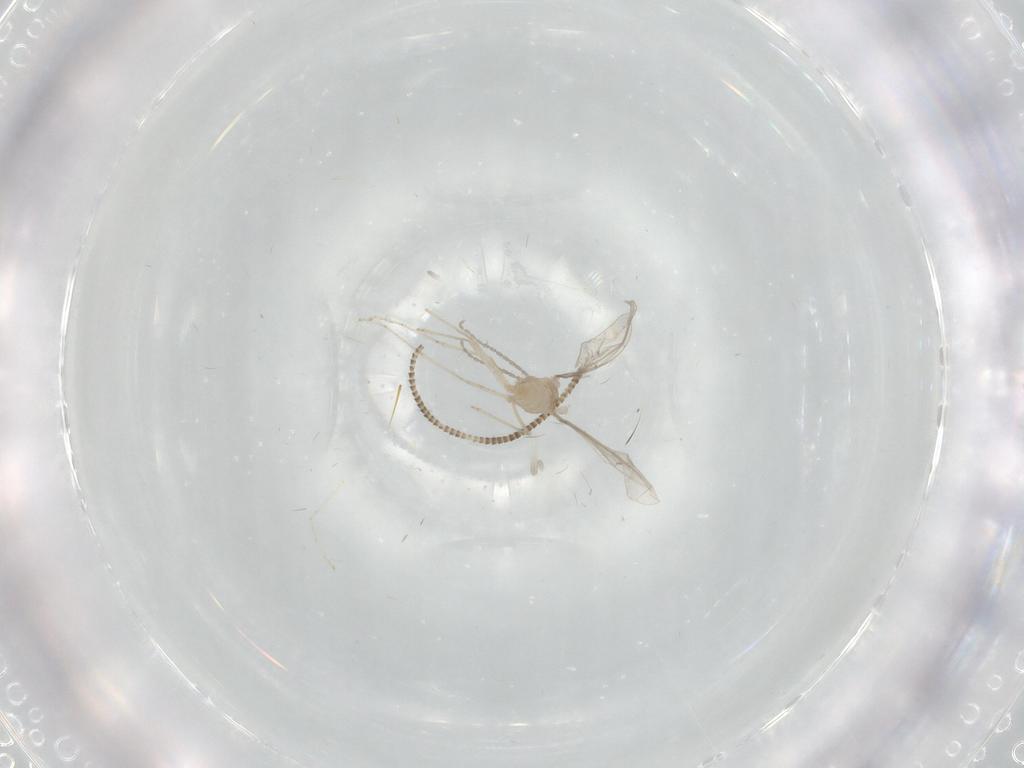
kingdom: Animalia
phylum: Arthropoda
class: Insecta
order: Diptera
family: Cecidomyiidae
